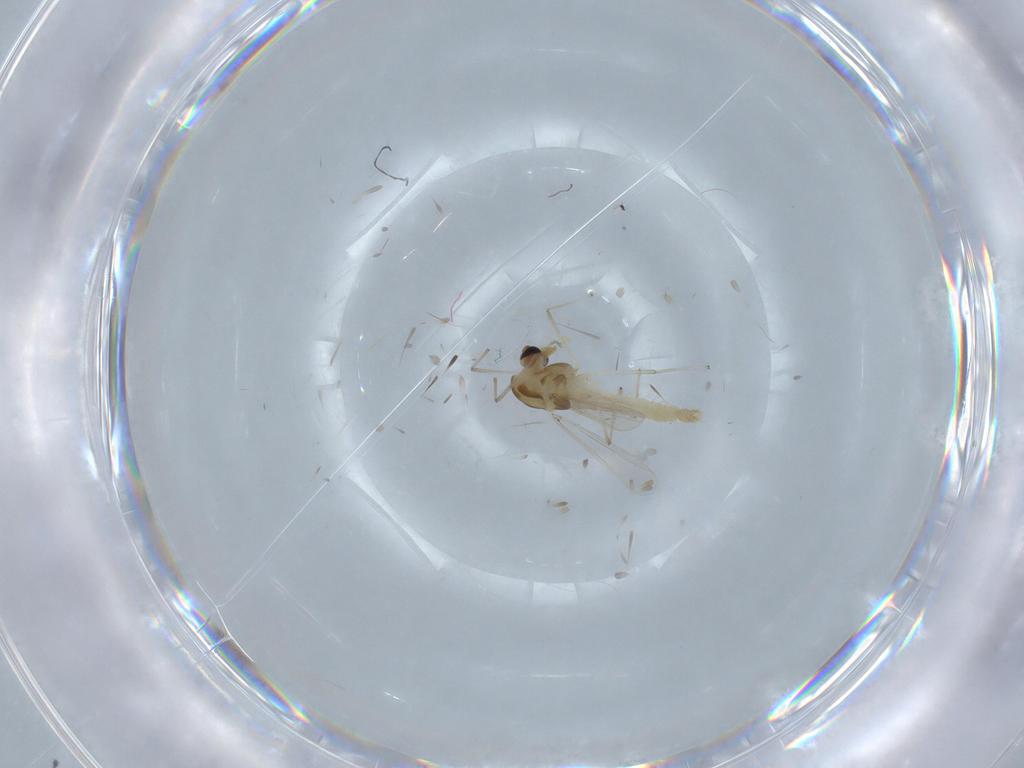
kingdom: Animalia
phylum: Arthropoda
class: Insecta
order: Diptera
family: Chironomidae
